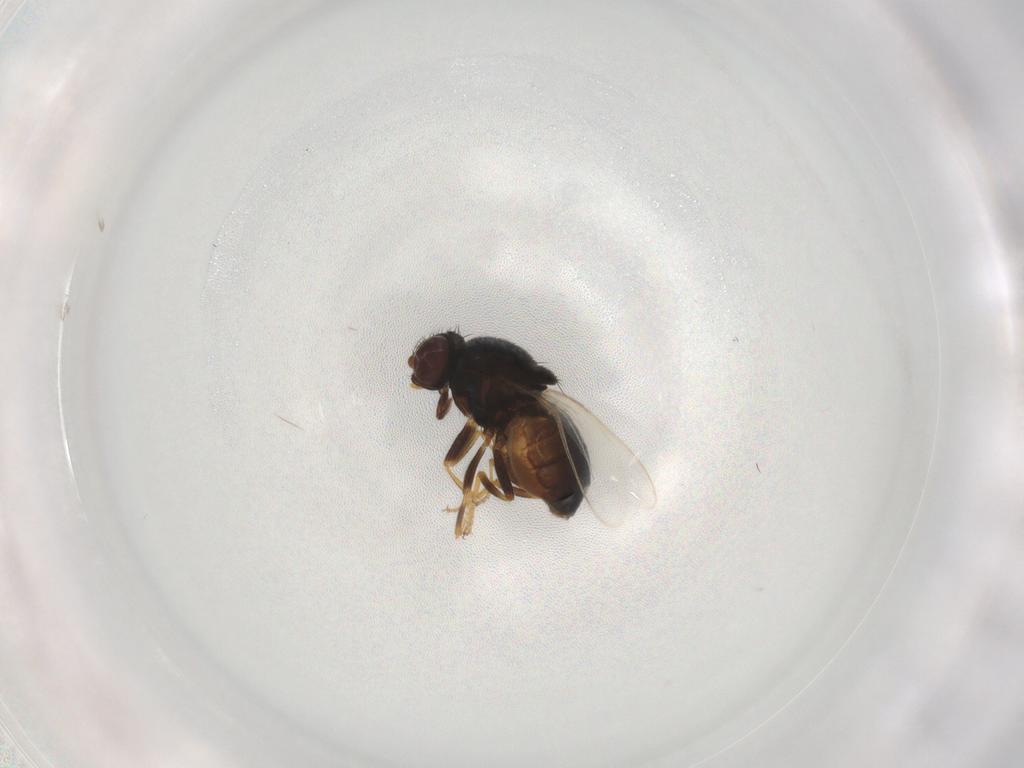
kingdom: Animalia
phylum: Arthropoda
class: Insecta
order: Diptera
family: Chloropidae
